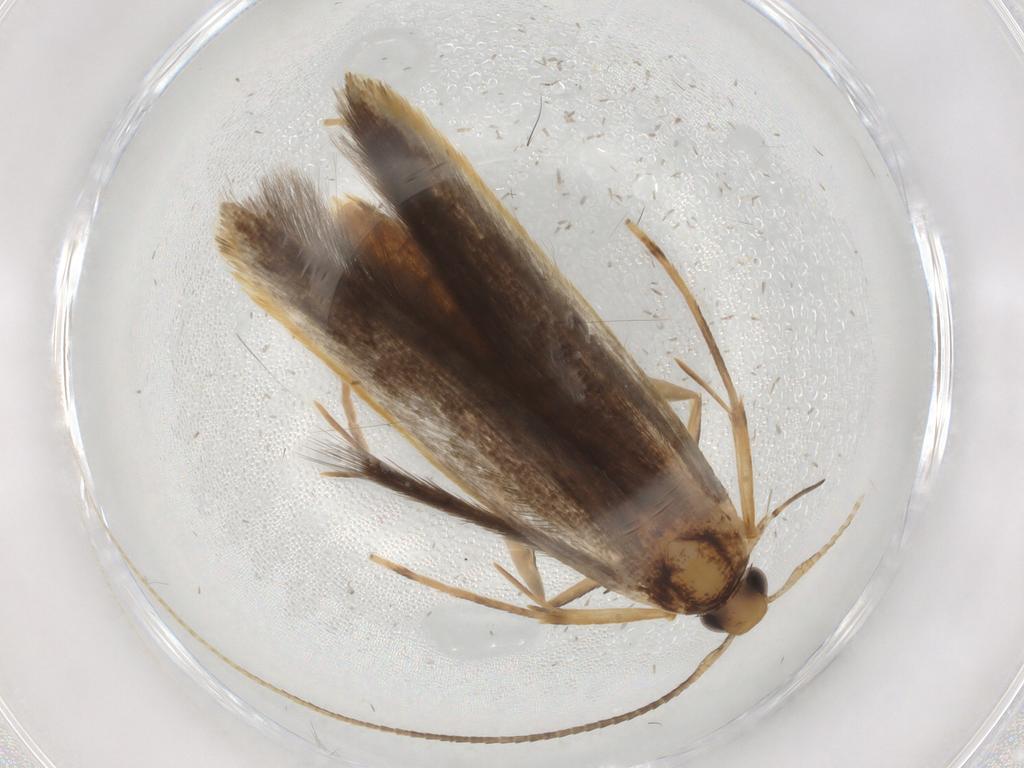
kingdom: Animalia
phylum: Arthropoda
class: Insecta
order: Lepidoptera
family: Pterolonchidae
